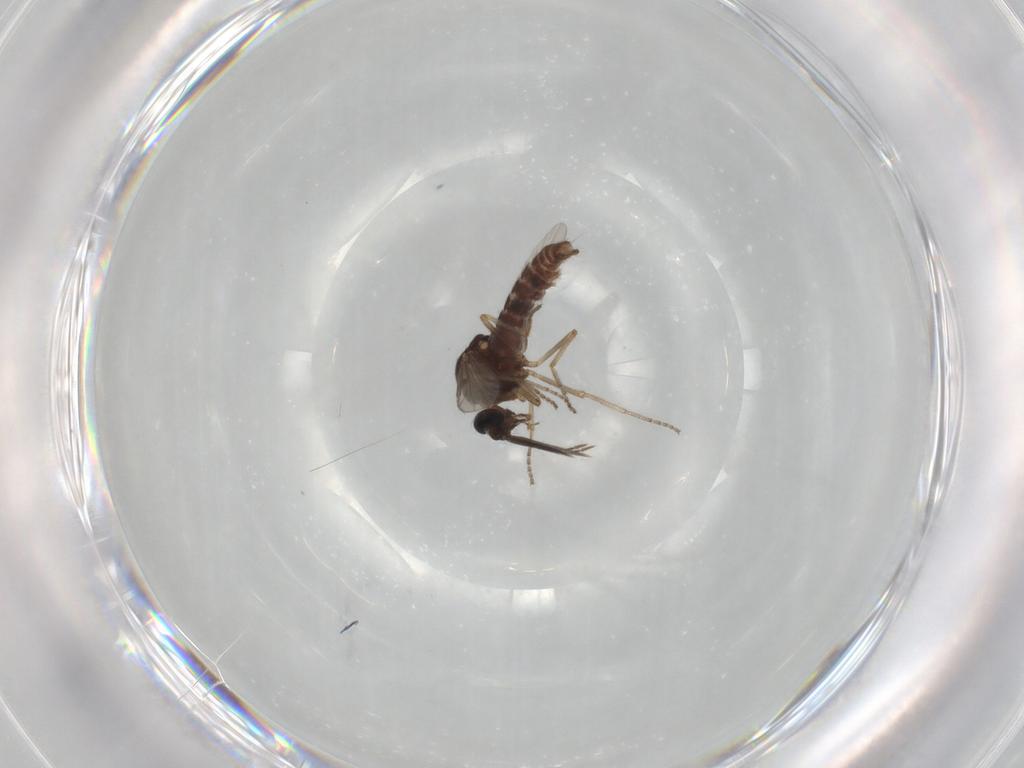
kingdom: Animalia
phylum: Arthropoda
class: Insecta
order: Diptera
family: Ceratopogonidae
